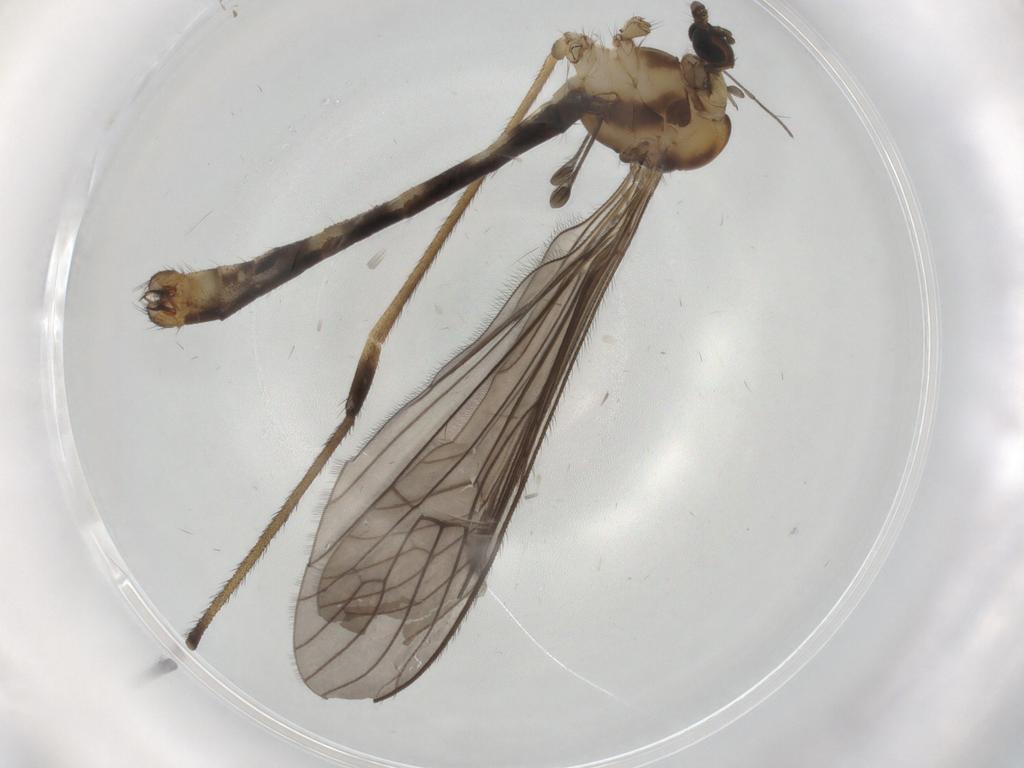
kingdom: Animalia
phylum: Arthropoda
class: Insecta
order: Diptera
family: Limoniidae
